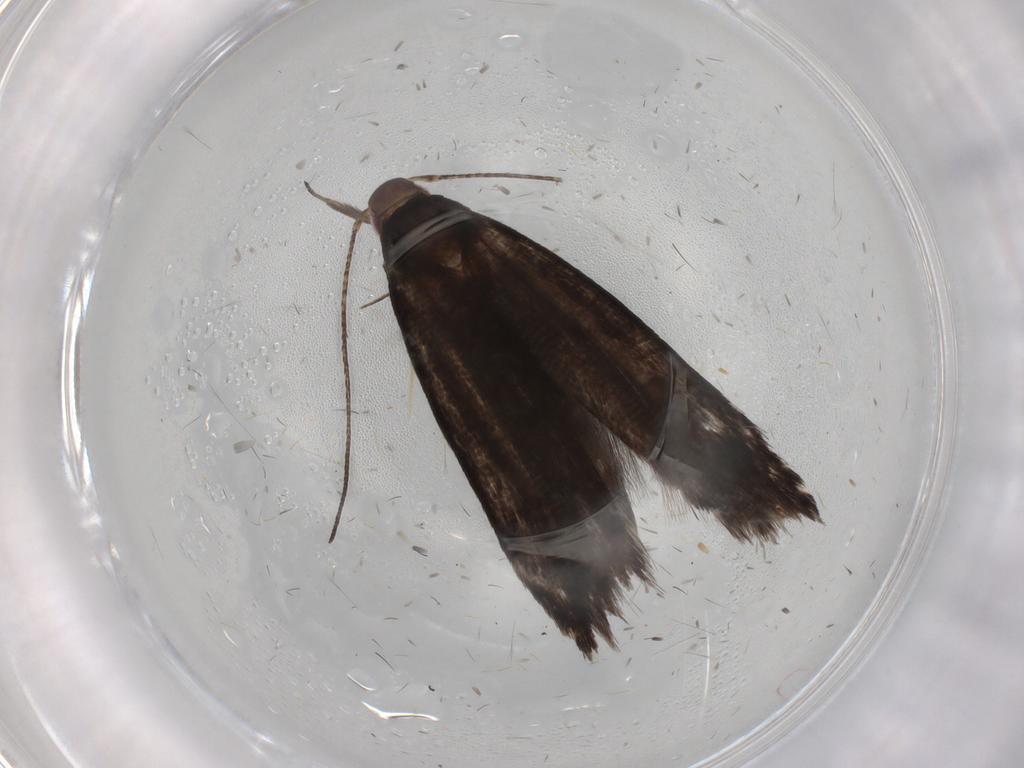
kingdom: Animalia
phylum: Arthropoda
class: Insecta
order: Lepidoptera
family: Gelechiidae
